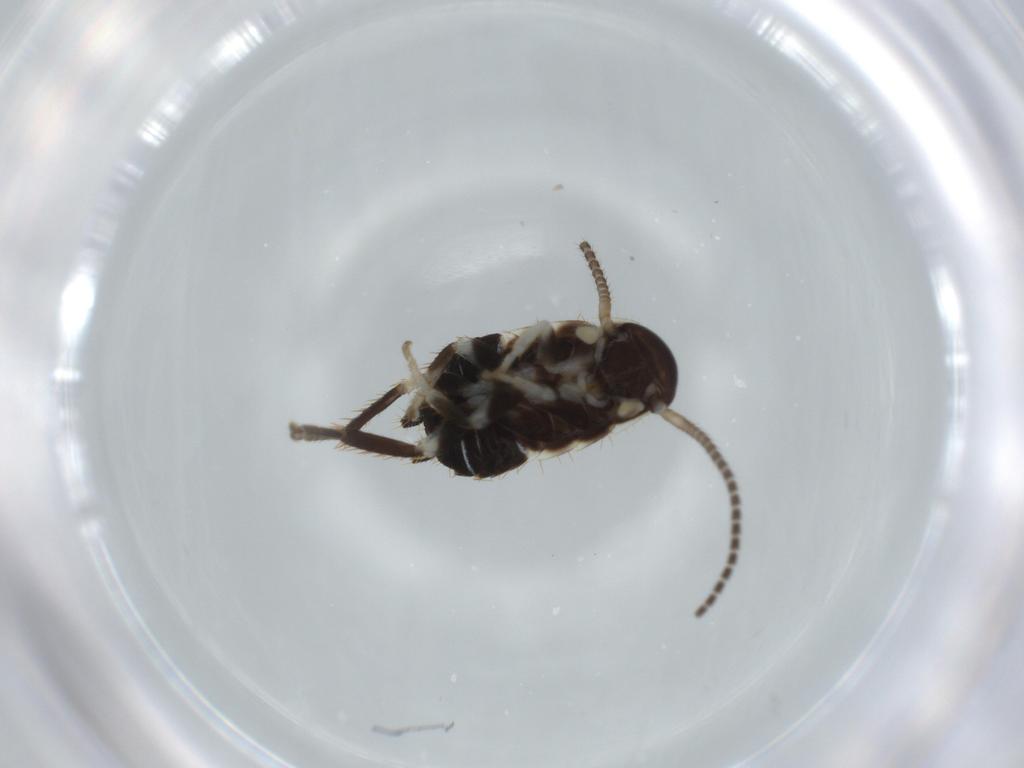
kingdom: Animalia
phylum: Arthropoda
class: Insecta
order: Blattodea
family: Ectobiidae
